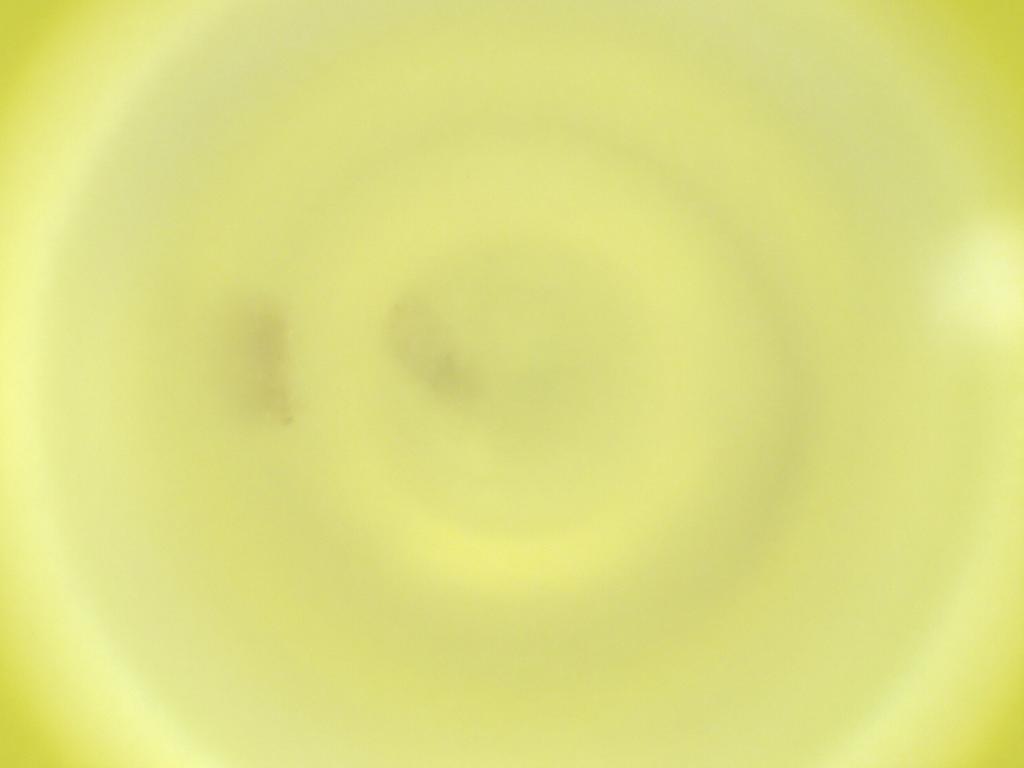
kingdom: Animalia
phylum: Arthropoda
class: Insecta
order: Diptera
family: Cecidomyiidae
